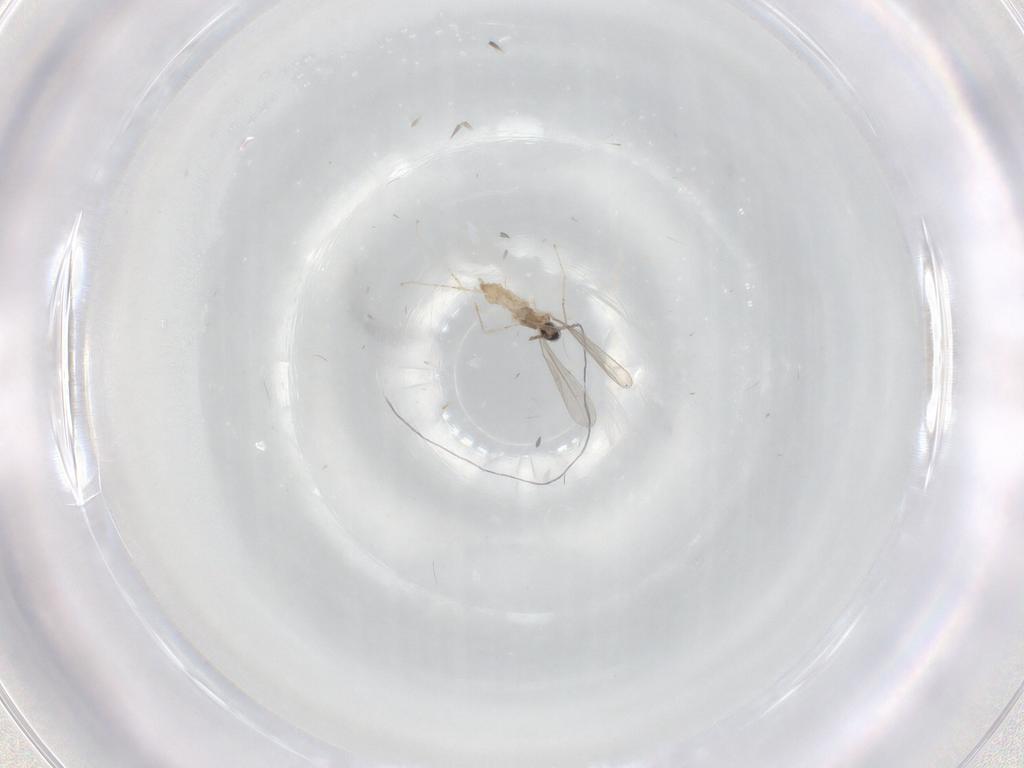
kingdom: Animalia
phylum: Arthropoda
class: Insecta
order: Diptera
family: Cecidomyiidae
